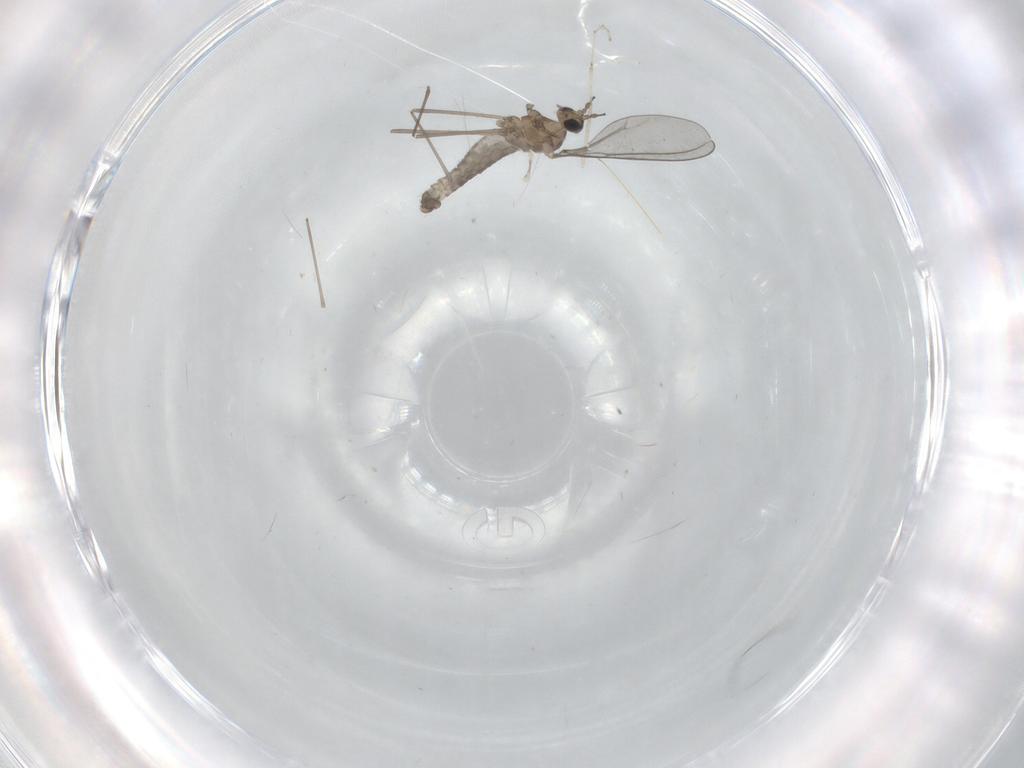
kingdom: Animalia
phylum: Arthropoda
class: Insecta
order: Diptera
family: Cecidomyiidae
